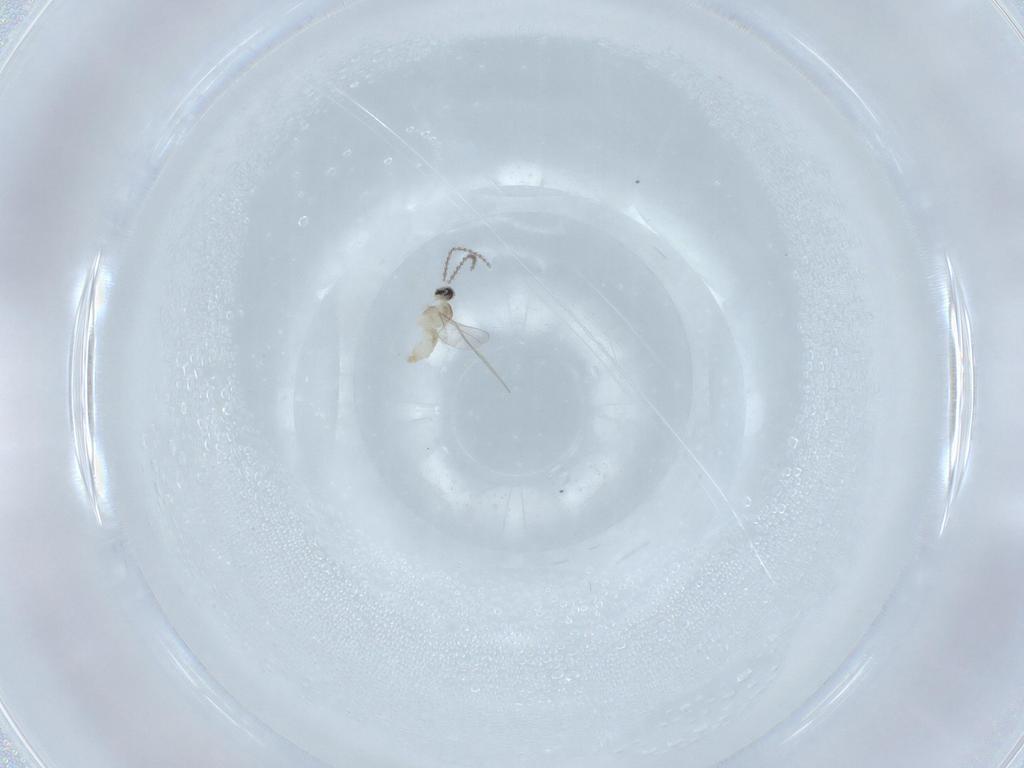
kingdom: Animalia
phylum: Arthropoda
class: Insecta
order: Diptera
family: Cecidomyiidae
